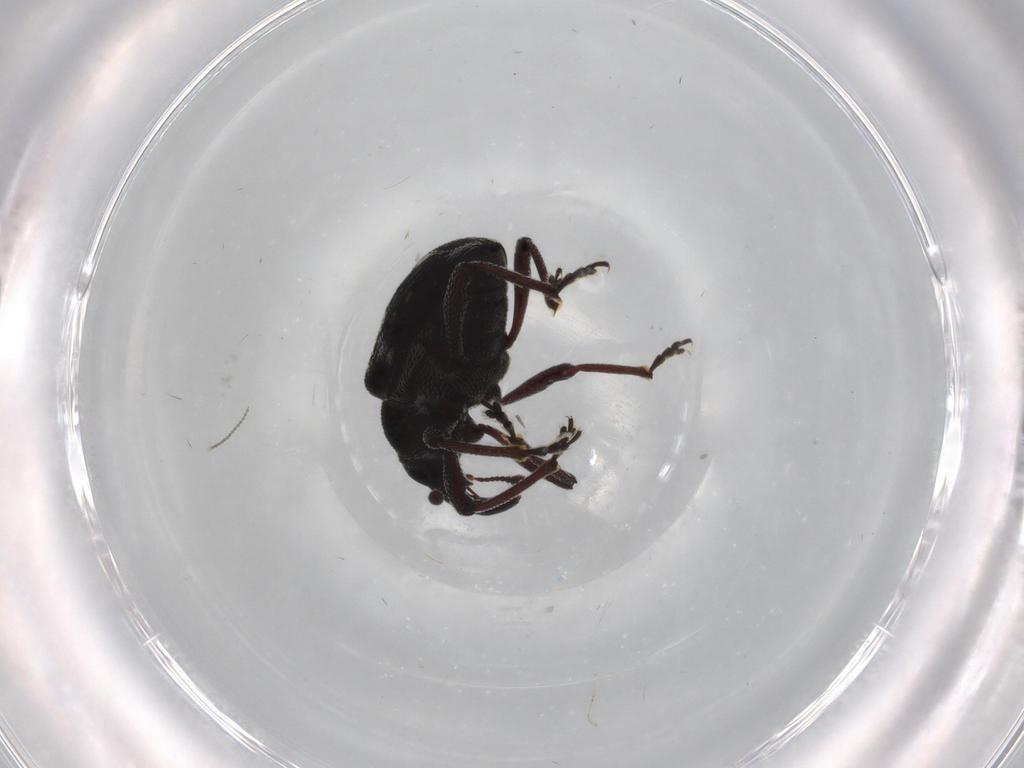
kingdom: Animalia
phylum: Arthropoda
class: Insecta
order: Coleoptera
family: Curculionidae
